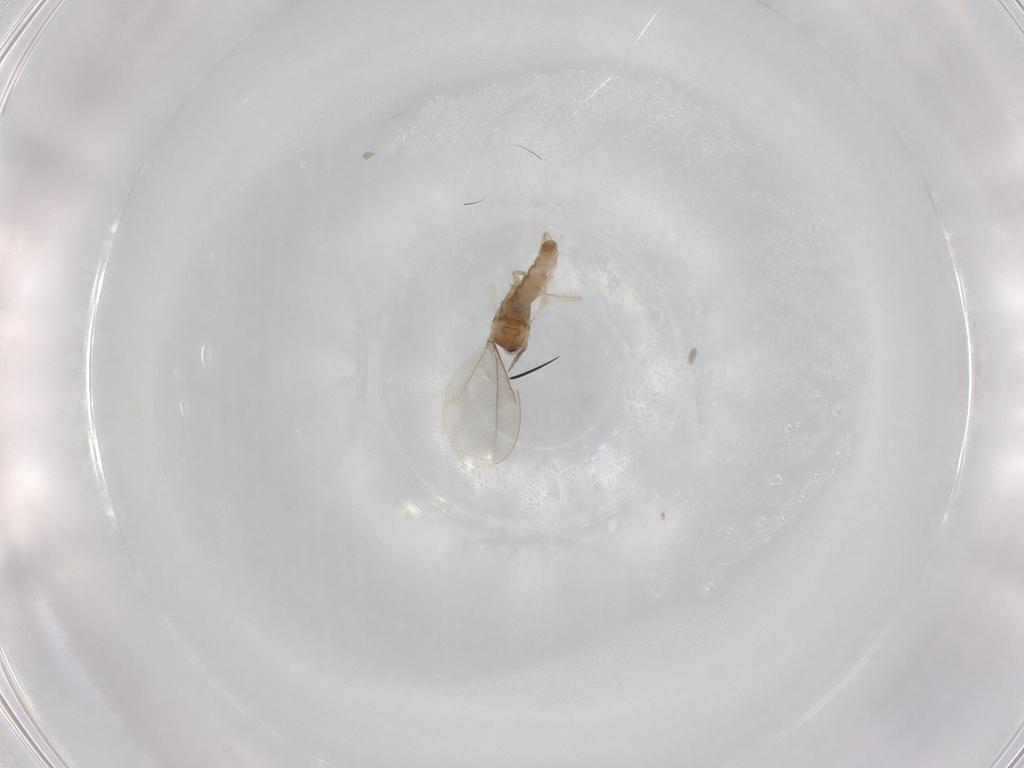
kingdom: Animalia
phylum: Arthropoda
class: Insecta
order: Diptera
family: Cecidomyiidae
